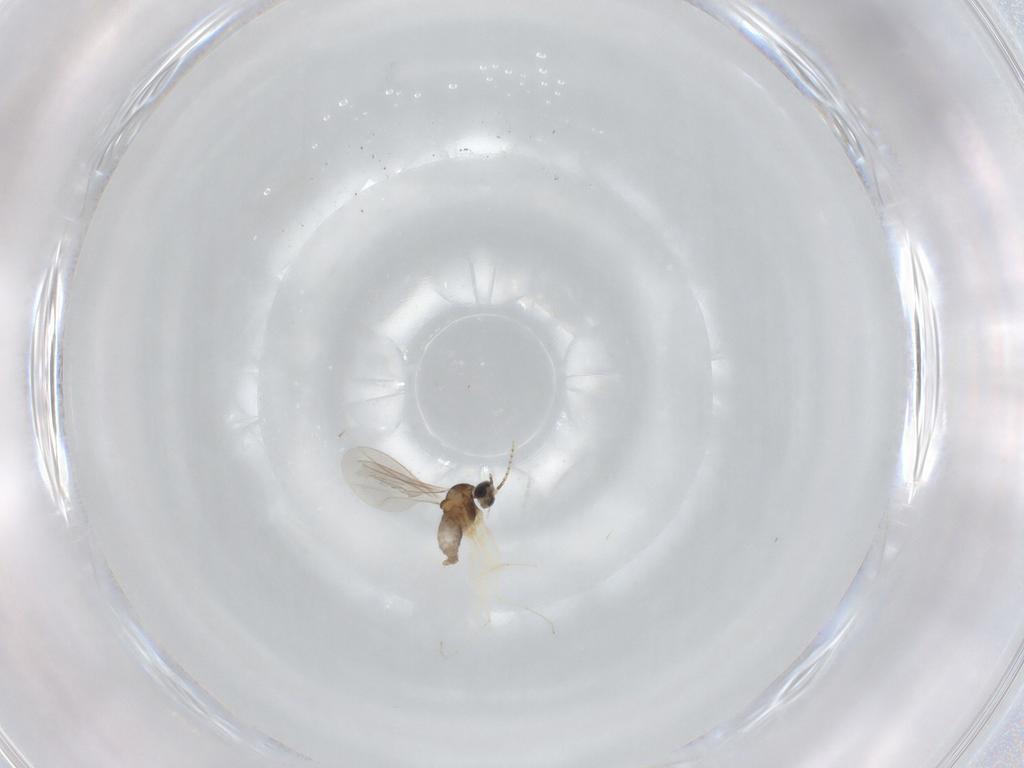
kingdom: Animalia
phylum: Arthropoda
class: Insecta
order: Diptera
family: Cecidomyiidae
